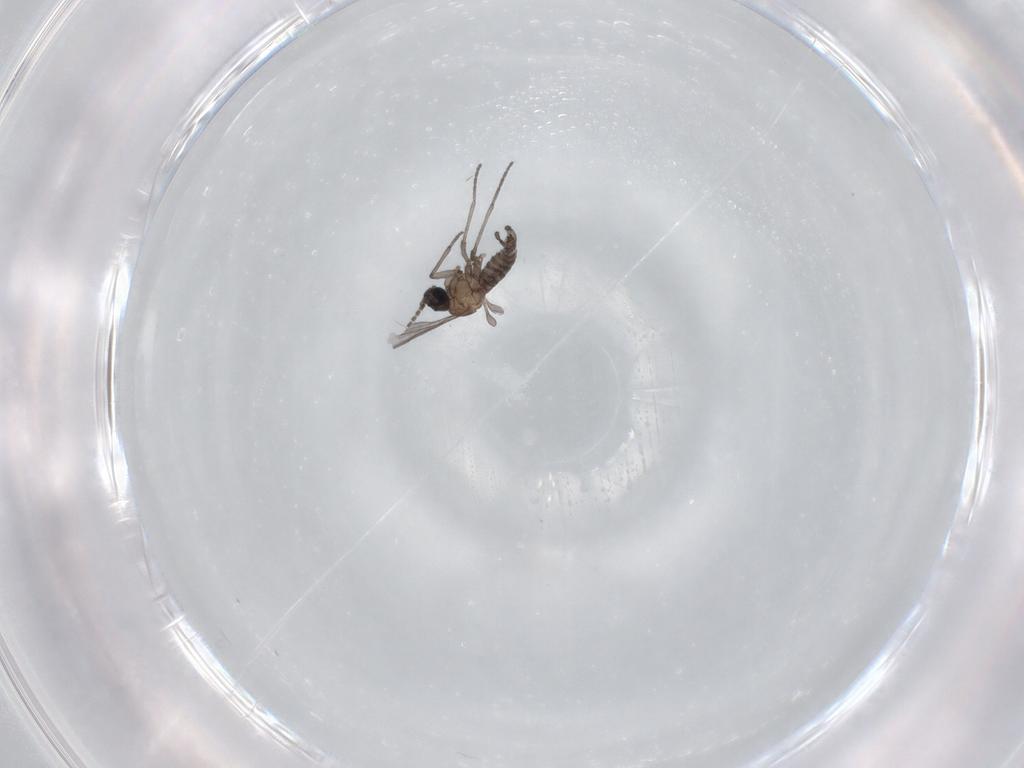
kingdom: Animalia
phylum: Arthropoda
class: Insecta
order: Diptera
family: Sciaridae
